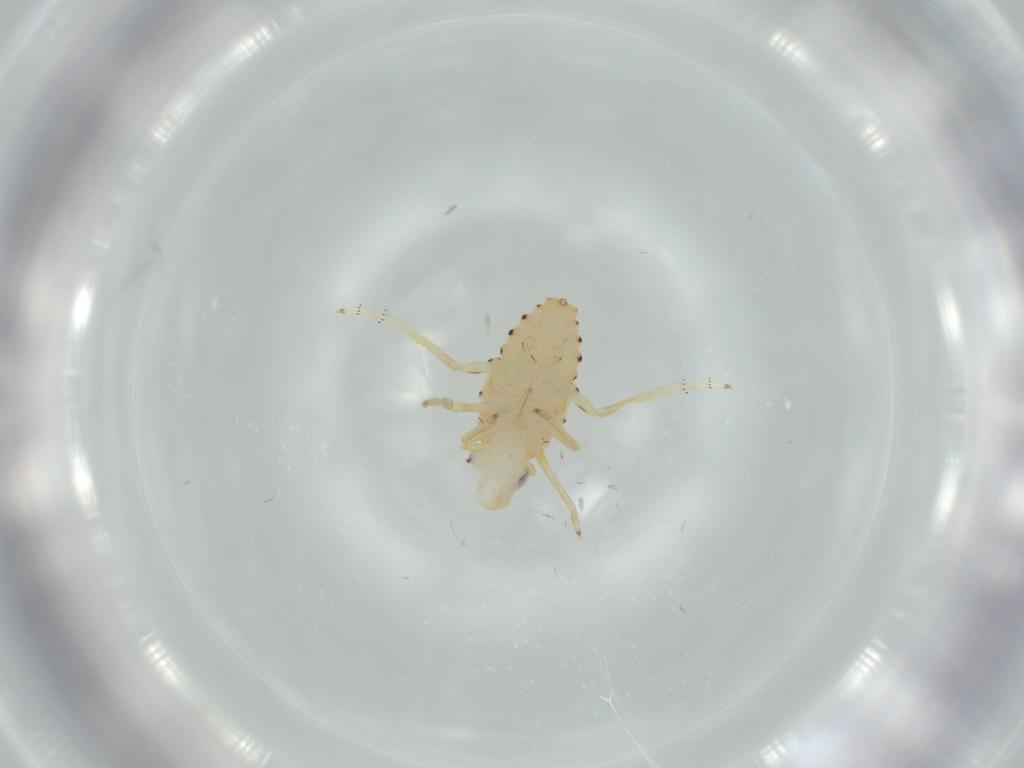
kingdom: Animalia
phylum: Arthropoda
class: Insecta
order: Hemiptera
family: Tropiduchidae
